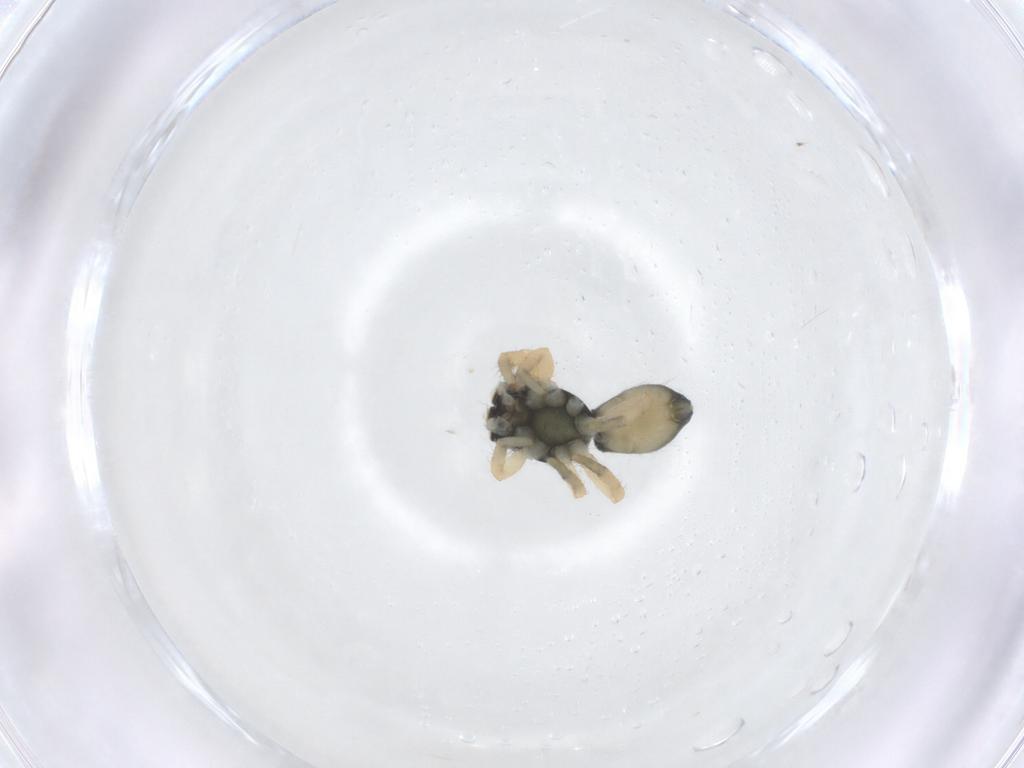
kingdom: Animalia
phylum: Arthropoda
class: Arachnida
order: Araneae
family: Salticidae
